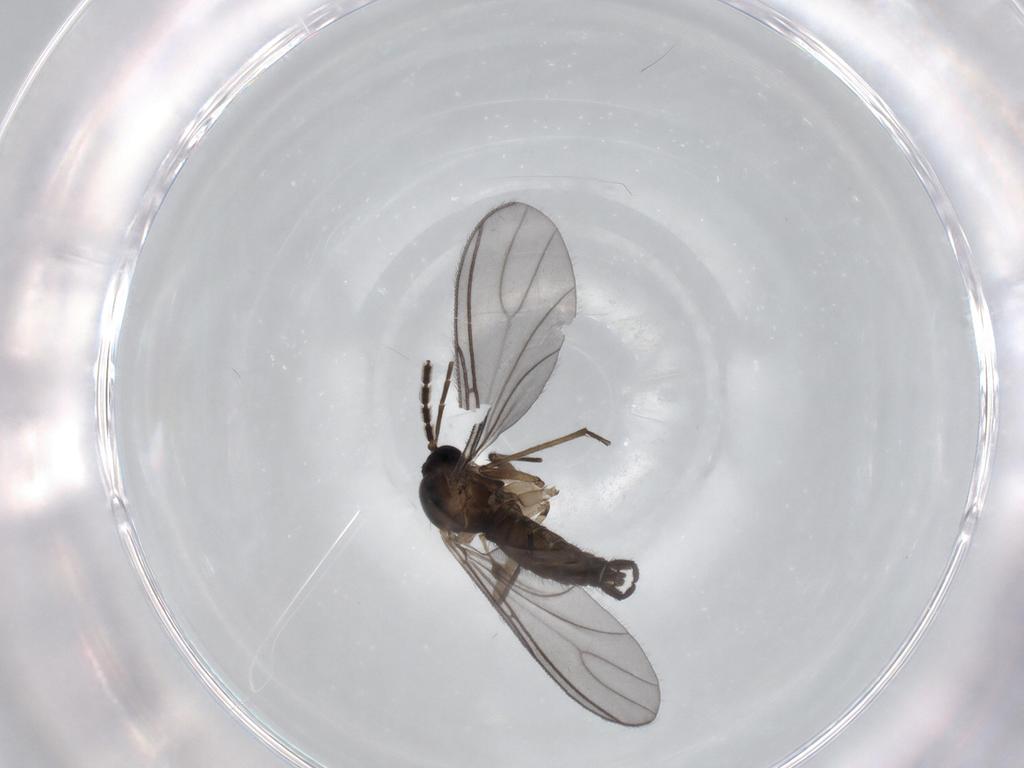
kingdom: Animalia
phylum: Arthropoda
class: Insecta
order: Diptera
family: Sciaridae
